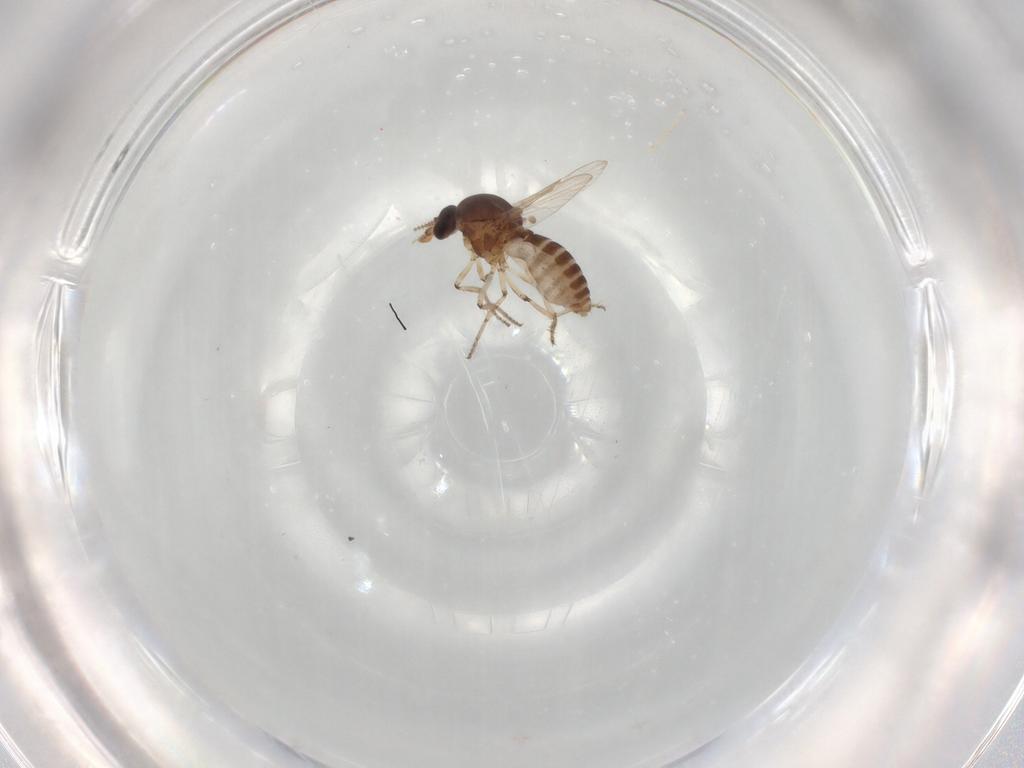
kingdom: Animalia
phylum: Arthropoda
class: Insecta
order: Diptera
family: Ceratopogonidae
